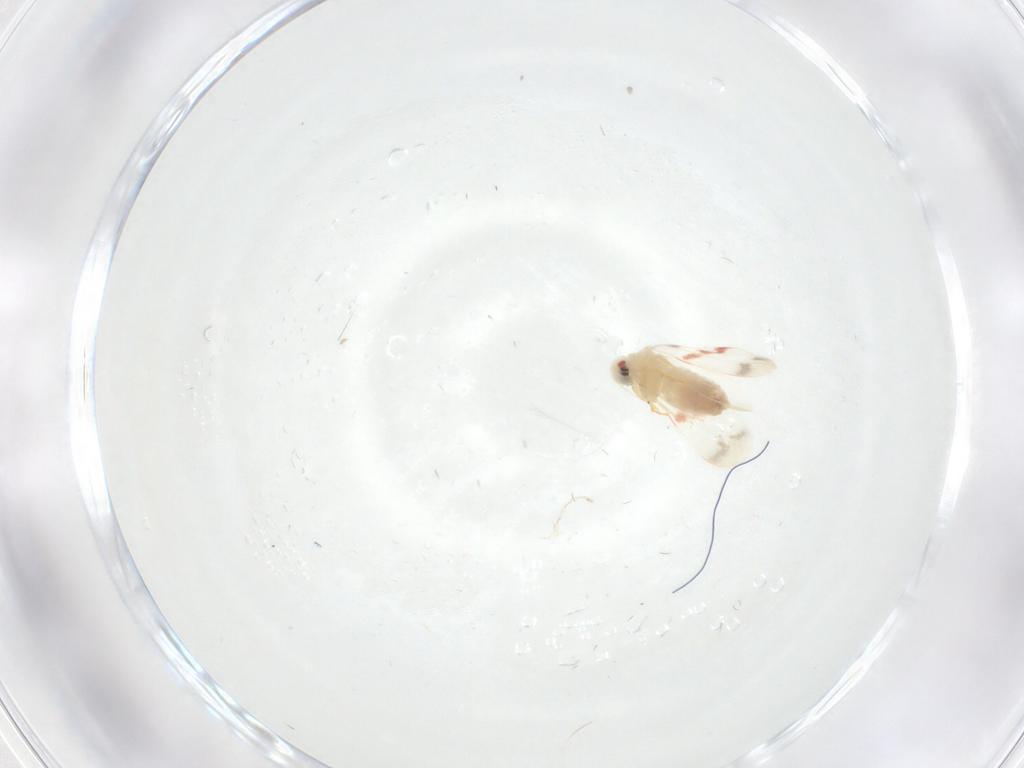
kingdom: Animalia
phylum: Arthropoda
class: Insecta
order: Hemiptera
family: Aleyrodidae
